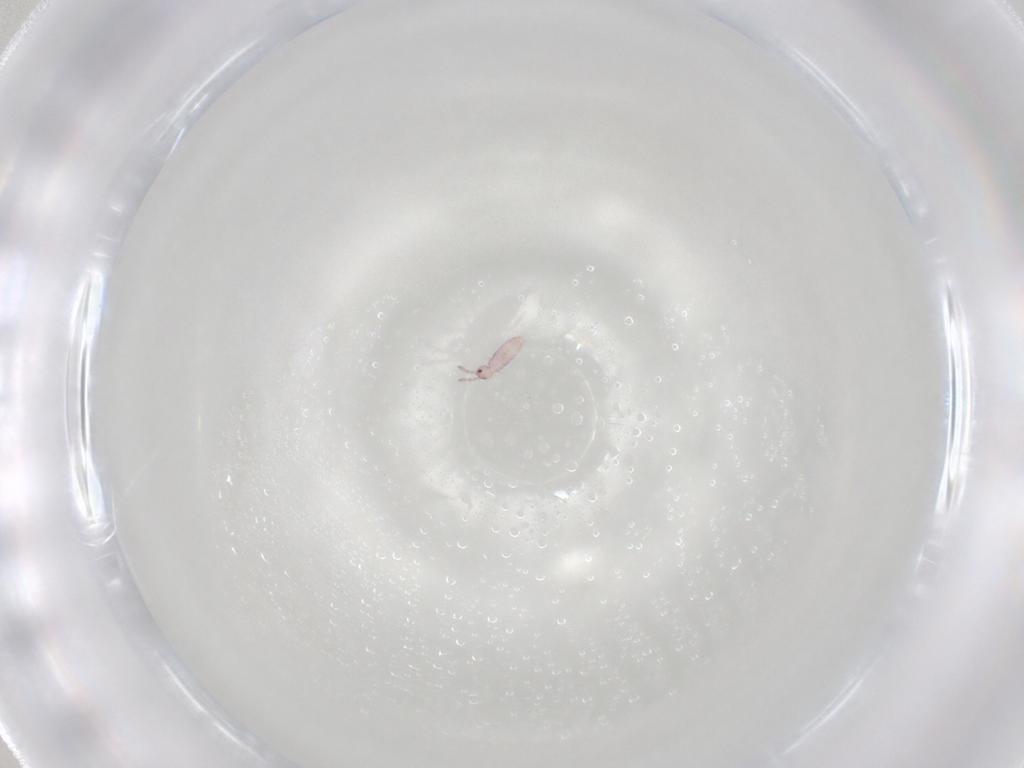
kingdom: Animalia
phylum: Arthropoda
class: Collembola
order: Entomobryomorpha
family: Entomobryidae
